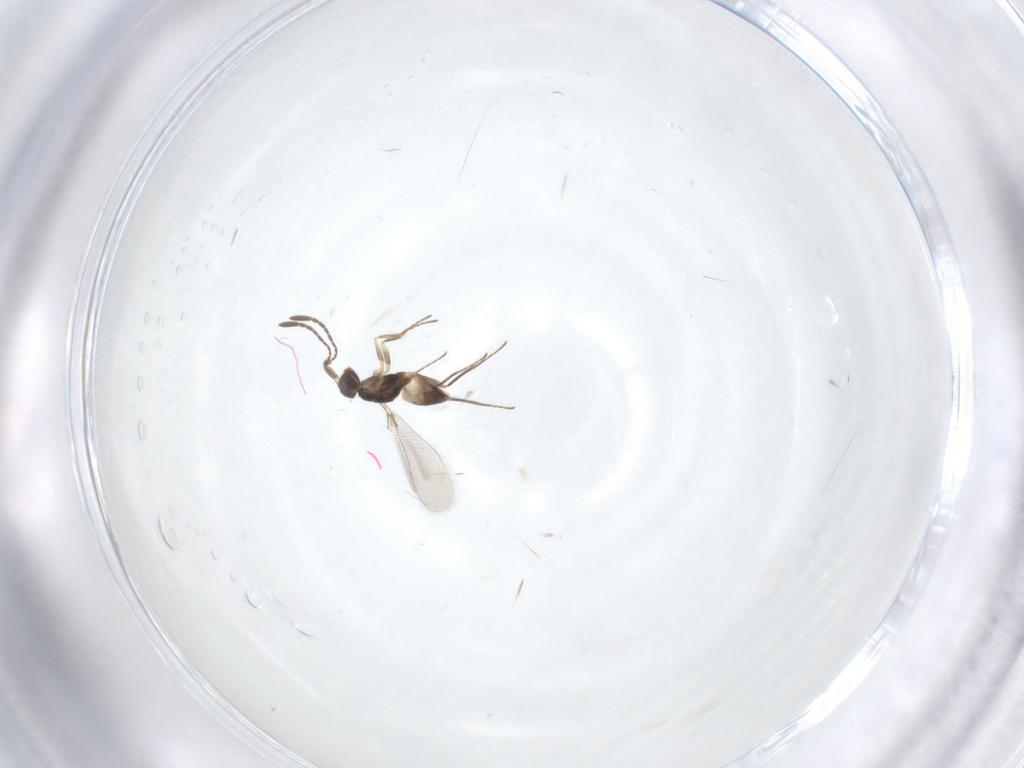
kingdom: Animalia
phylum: Arthropoda
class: Insecta
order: Hymenoptera
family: Mymaridae
